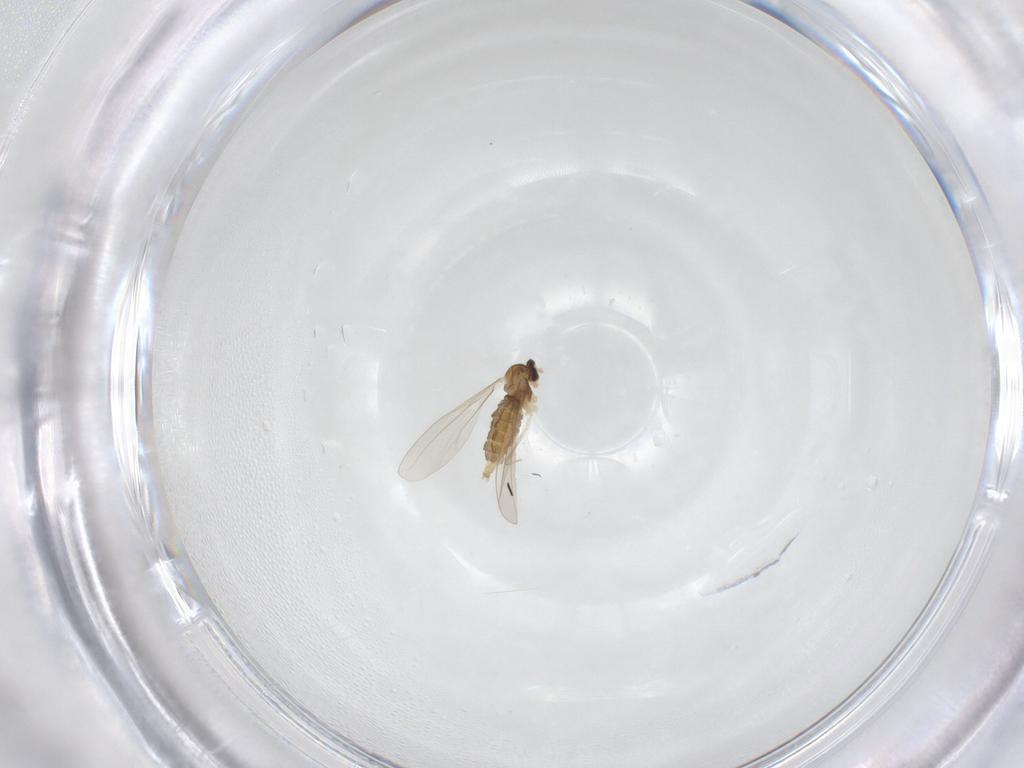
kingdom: Animalia
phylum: Arthropoda
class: Insecta
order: Diptera
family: Cecidomyiidae
